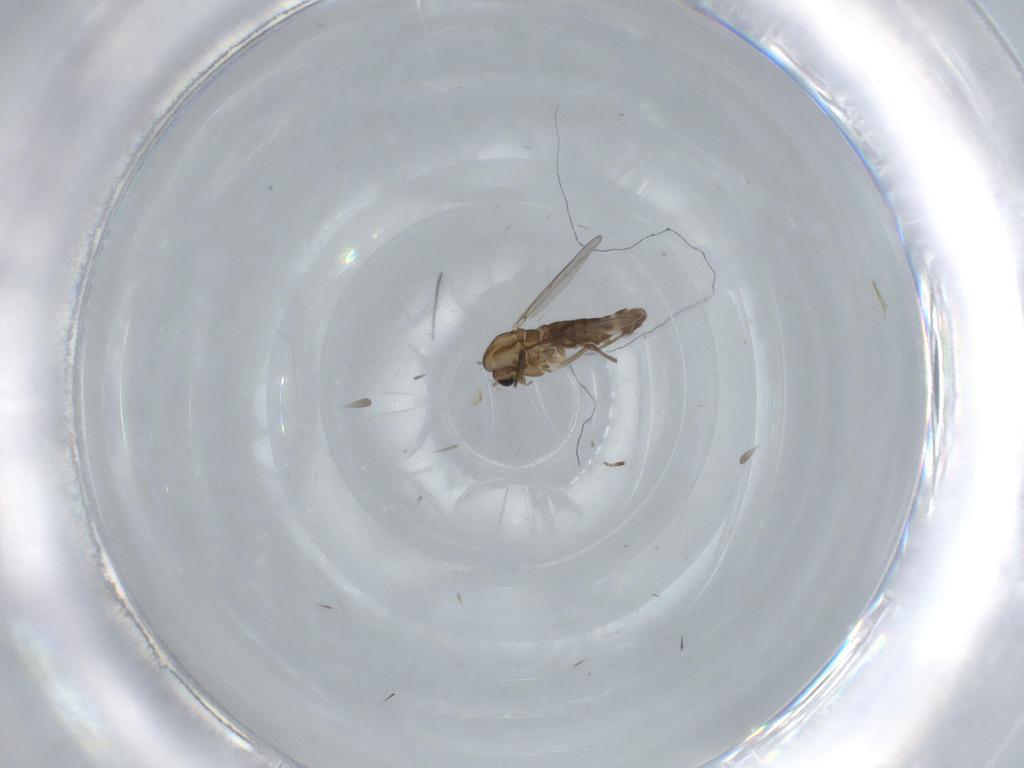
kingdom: Animalia
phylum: Arthropoda
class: Insecta
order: Diptera
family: Chironomidae
